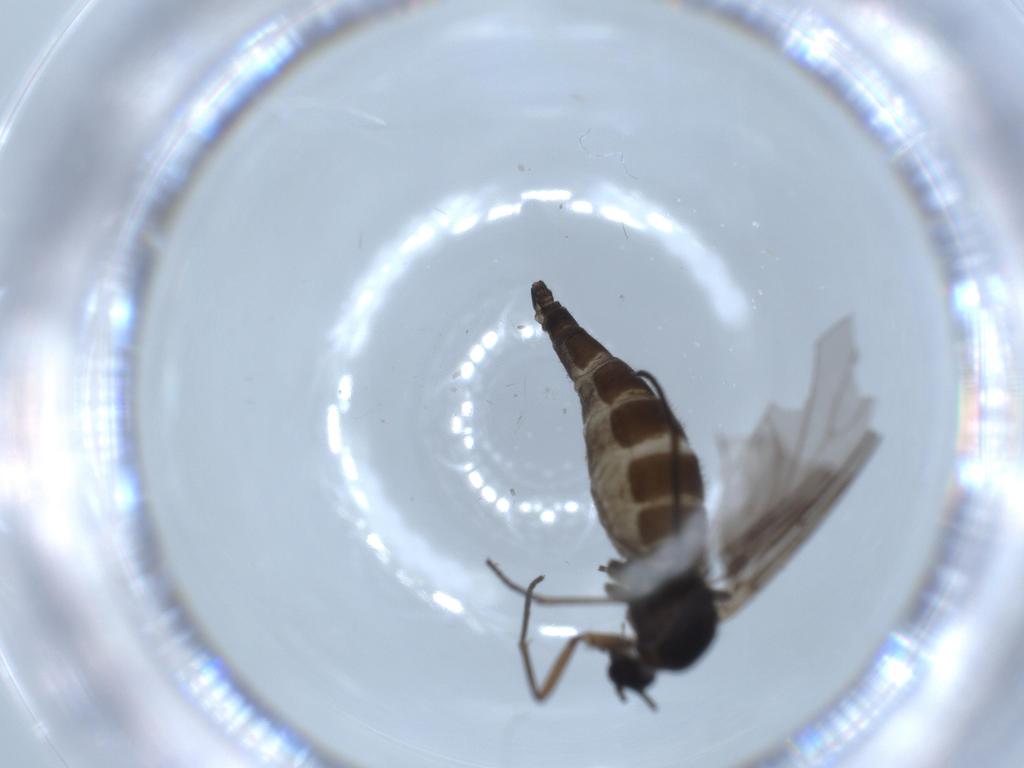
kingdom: Animalia
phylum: Arthropoda
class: Insecta
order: Diptera
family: Sciaridae
